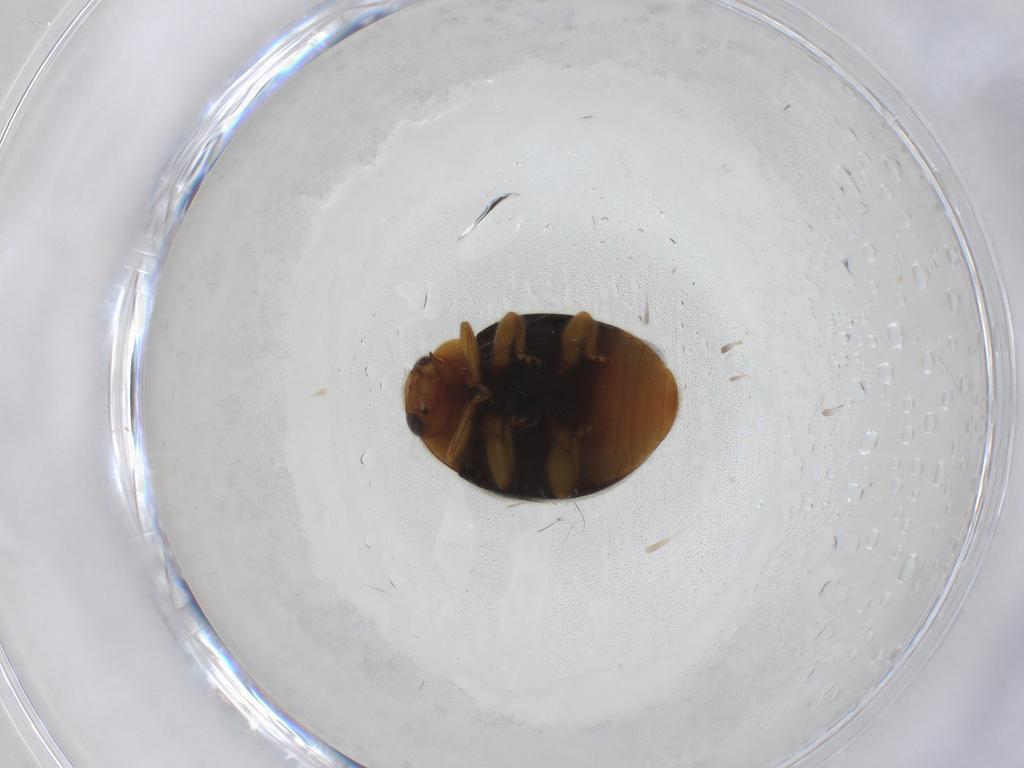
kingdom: Animalia
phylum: Arthropoda
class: Insecta
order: Coleoptera
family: Coccinellidae
